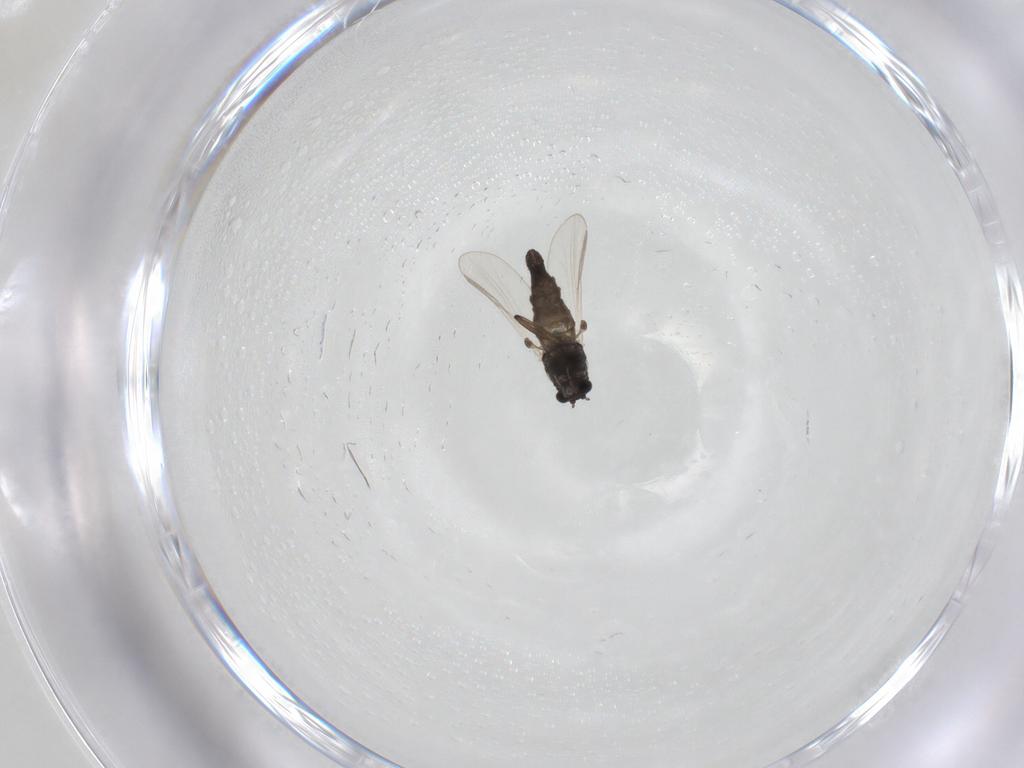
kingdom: Animalia
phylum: Arthropoda
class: Insecta
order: Diptera
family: Chironomidae
